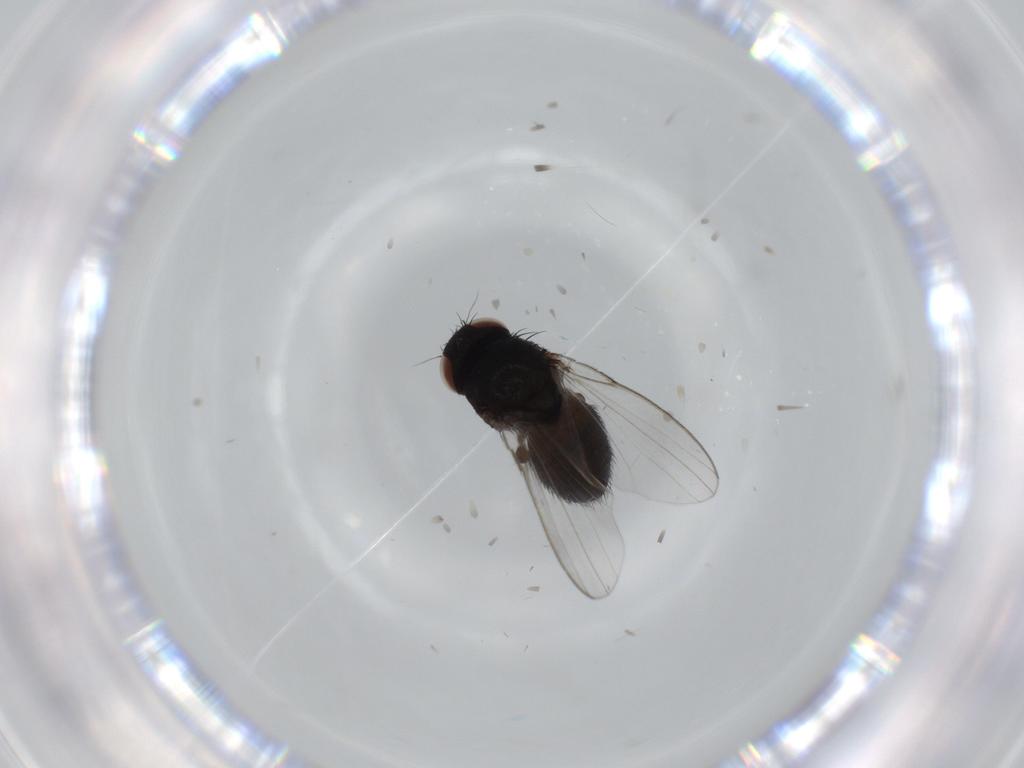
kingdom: Animalia
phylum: Arthropoda
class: Insecta
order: Diptera
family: Milichiidae
